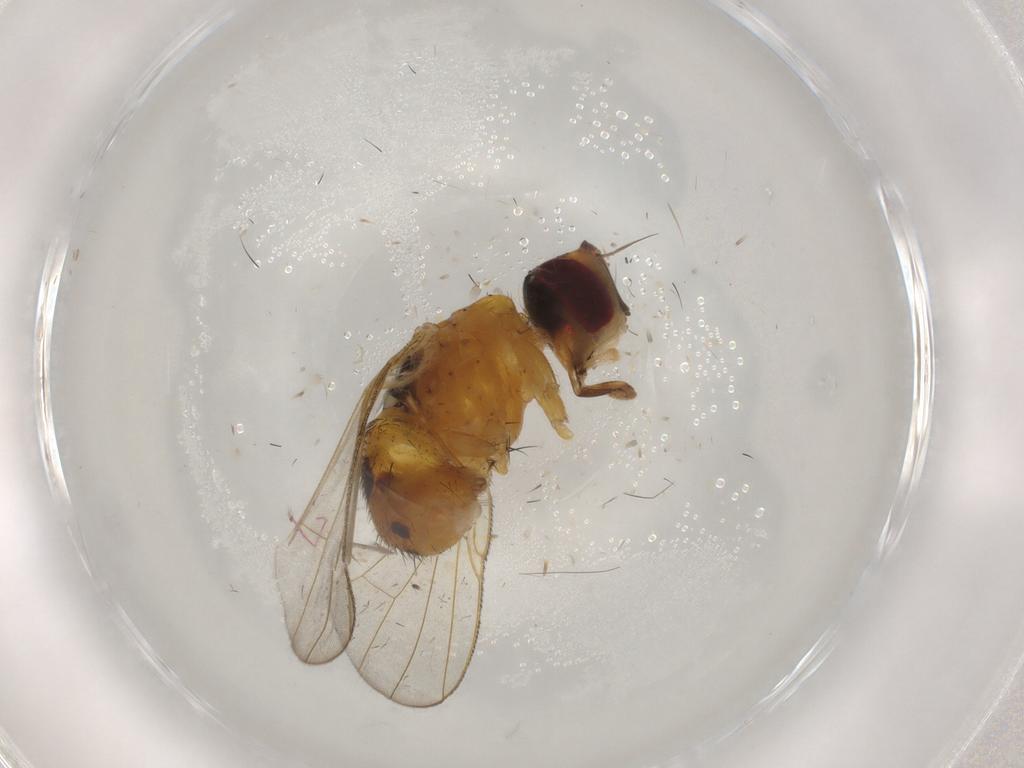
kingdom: Animalia
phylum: Arthropoda
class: Insecta
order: Diptera
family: Muscidae
